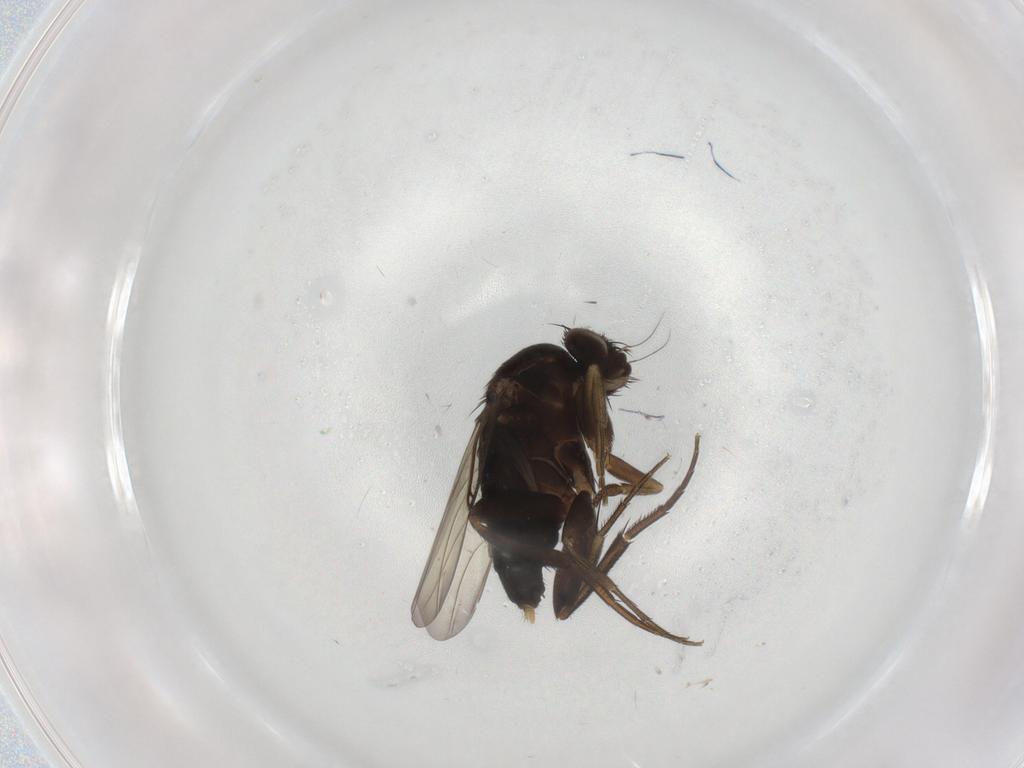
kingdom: Animalia
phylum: Arthropoda
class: Insecta
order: Diptera
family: Phoridae
